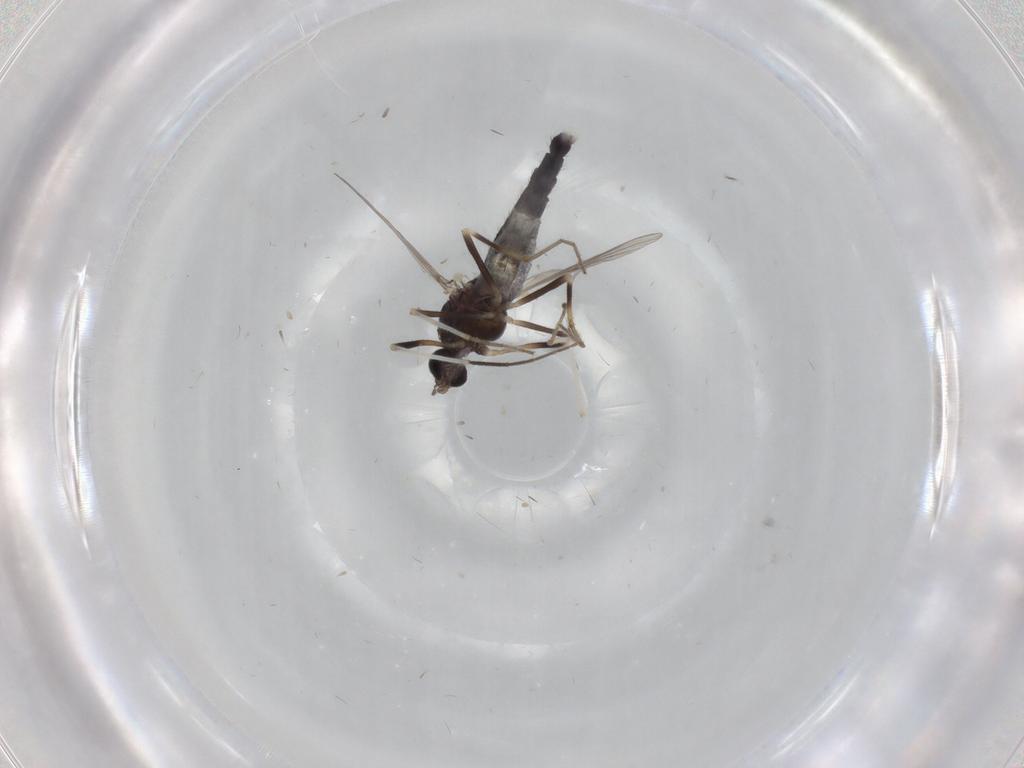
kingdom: Animalia
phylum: Arthropoda
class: Insecta
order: Diptera
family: Chironomidae
